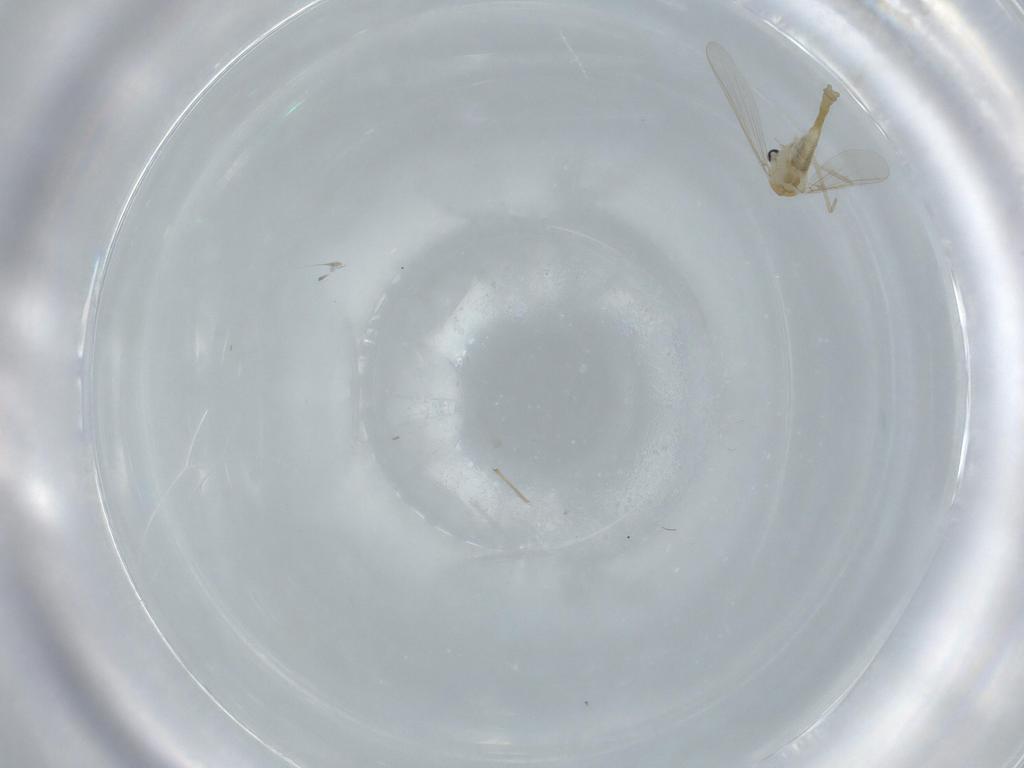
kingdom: Animalia
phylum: Arthropoda
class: Insecta
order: Diptera
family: Chironomidae
